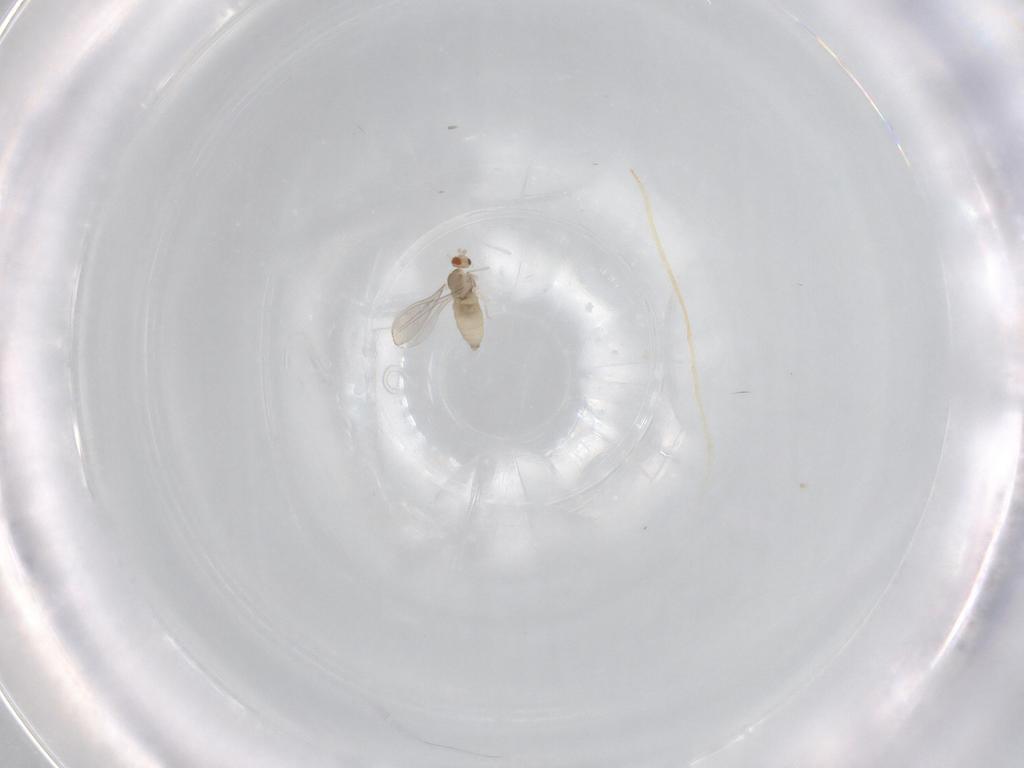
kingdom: Animalia
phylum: Arthropoda
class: Insecta
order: Diptera
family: Cecidomyiidae
